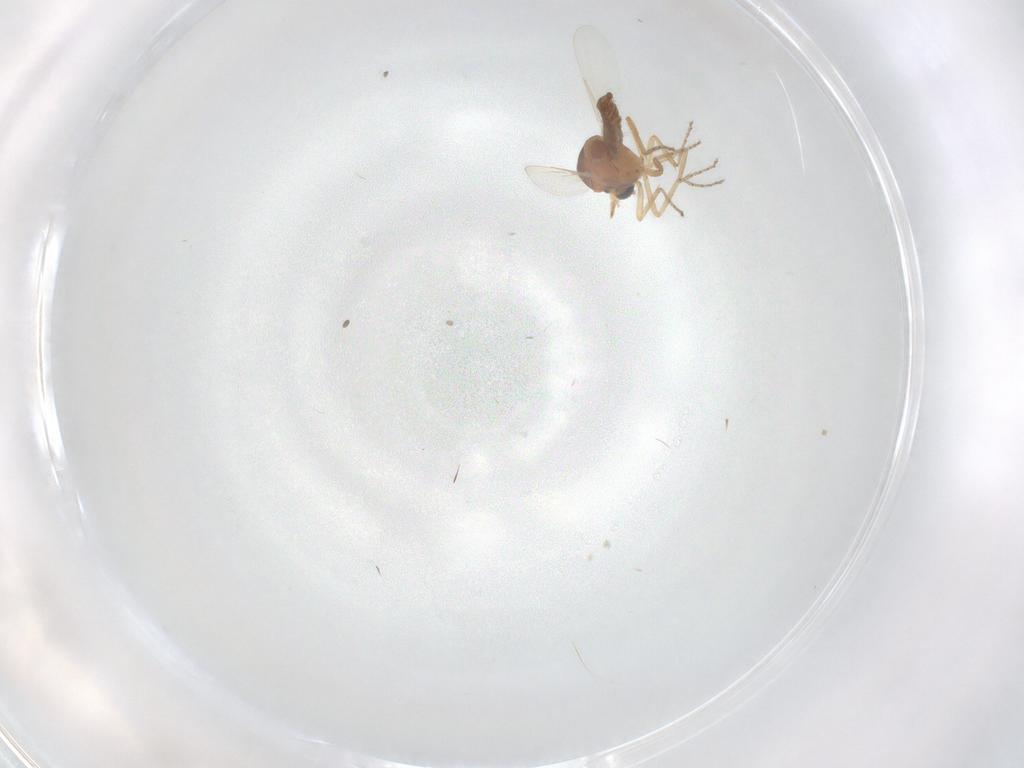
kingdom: Animalia
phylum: Arthropoda
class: Insecta
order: Diptera
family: Ceratopogonidae
